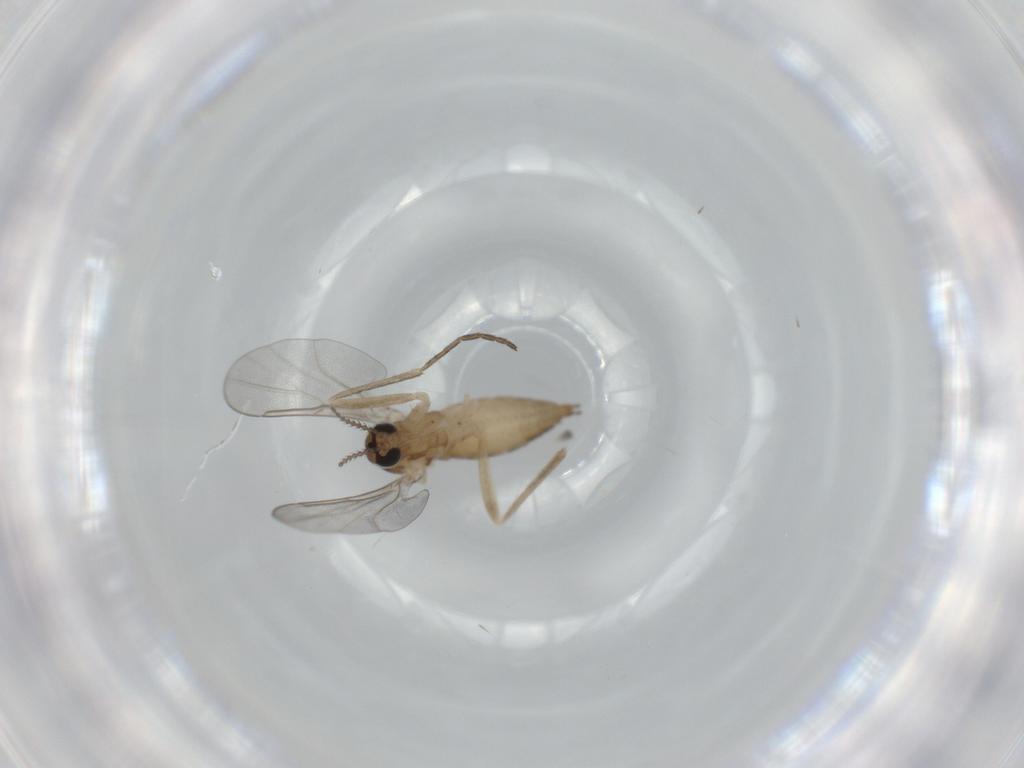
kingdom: Animalia
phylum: Arthropoda
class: Insecta
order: Diptera
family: Cecidomyiidae
